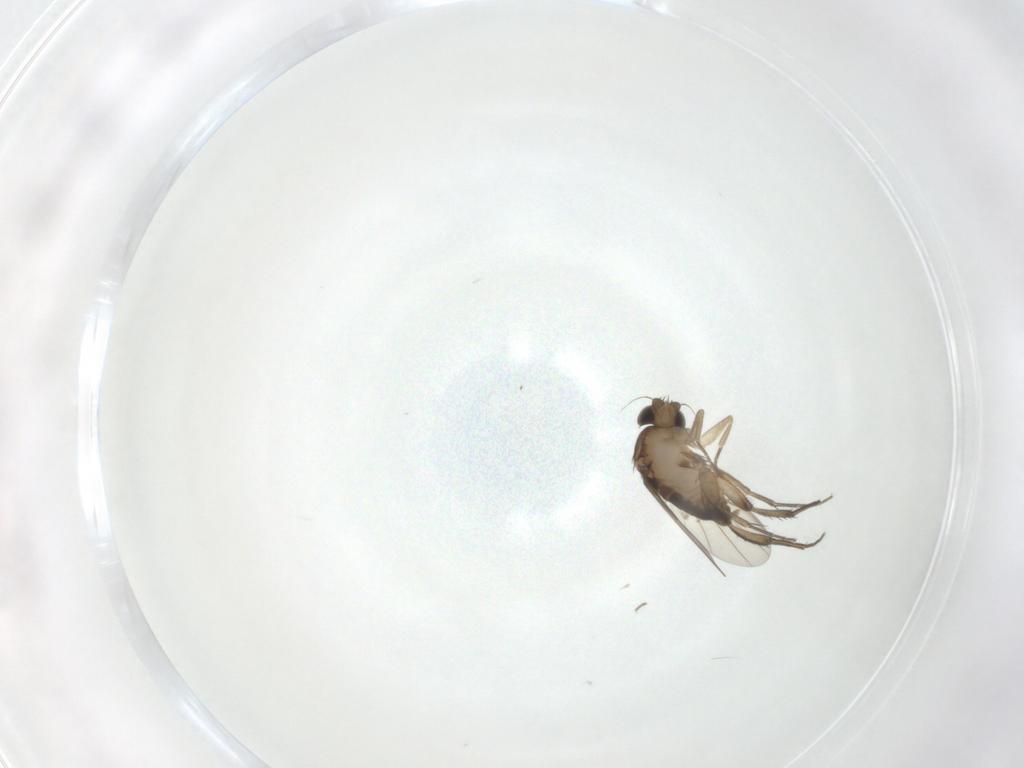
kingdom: Animalia
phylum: Arthropoda
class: Insecta
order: Diptera
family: Phoridae
